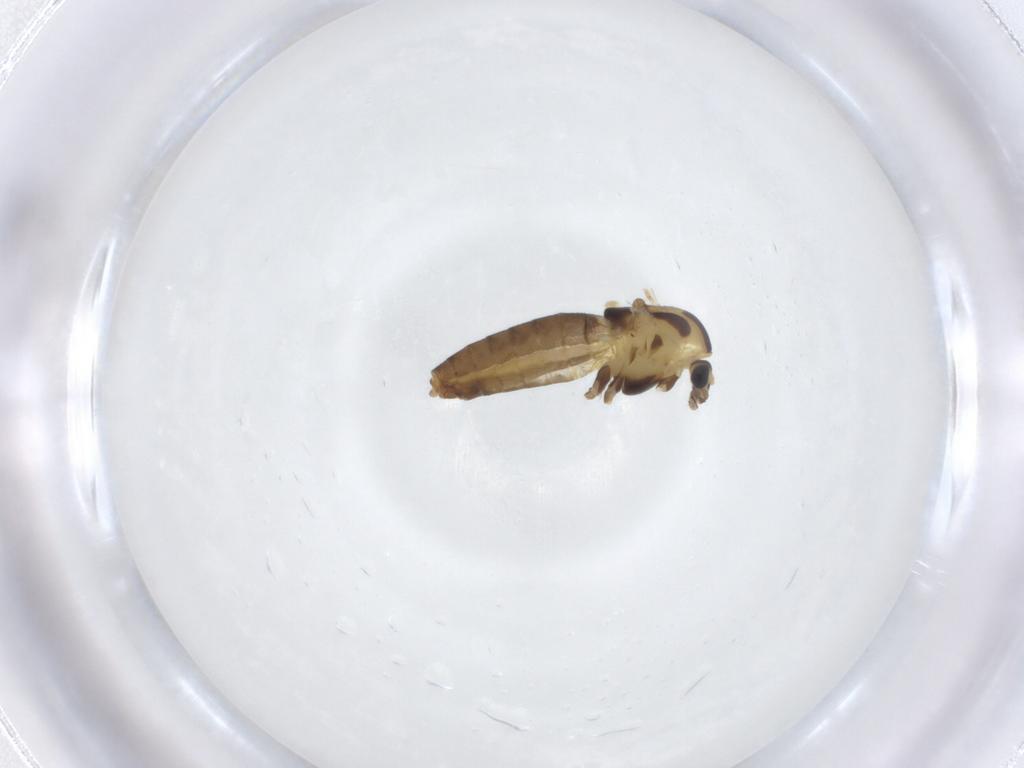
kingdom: Animalia
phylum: Arthropoda
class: Insecta
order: Diptera
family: Chironomidae
